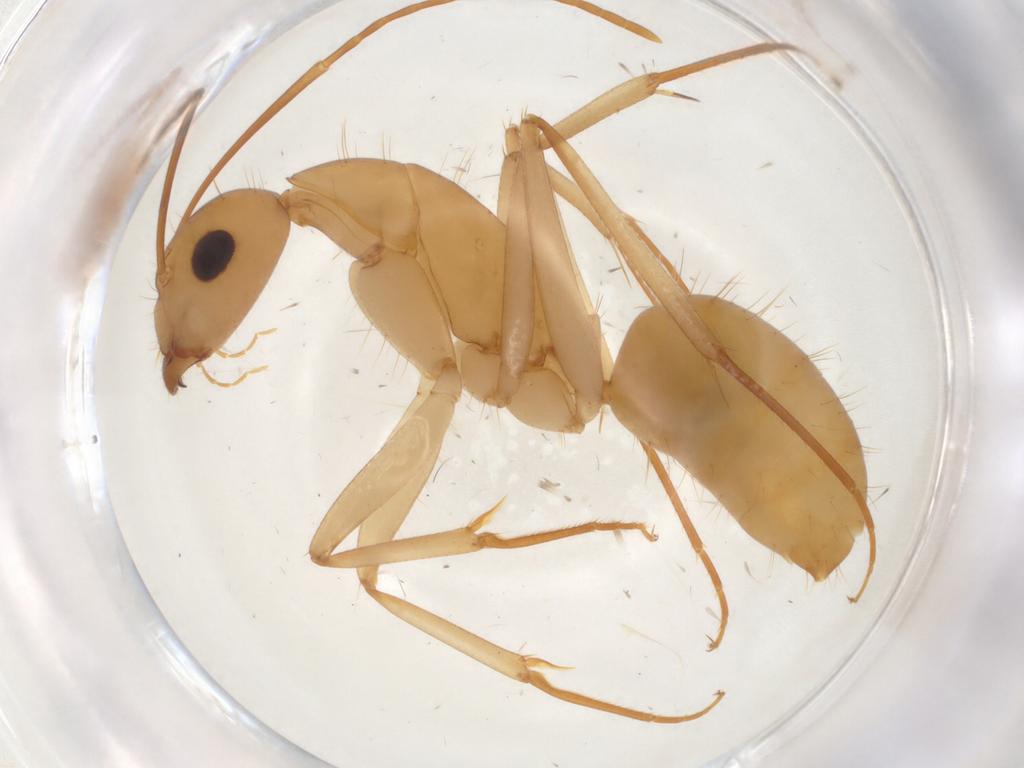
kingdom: Animalia
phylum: Arthropoda
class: Insecta
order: Hymenoptera
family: Formicidae
